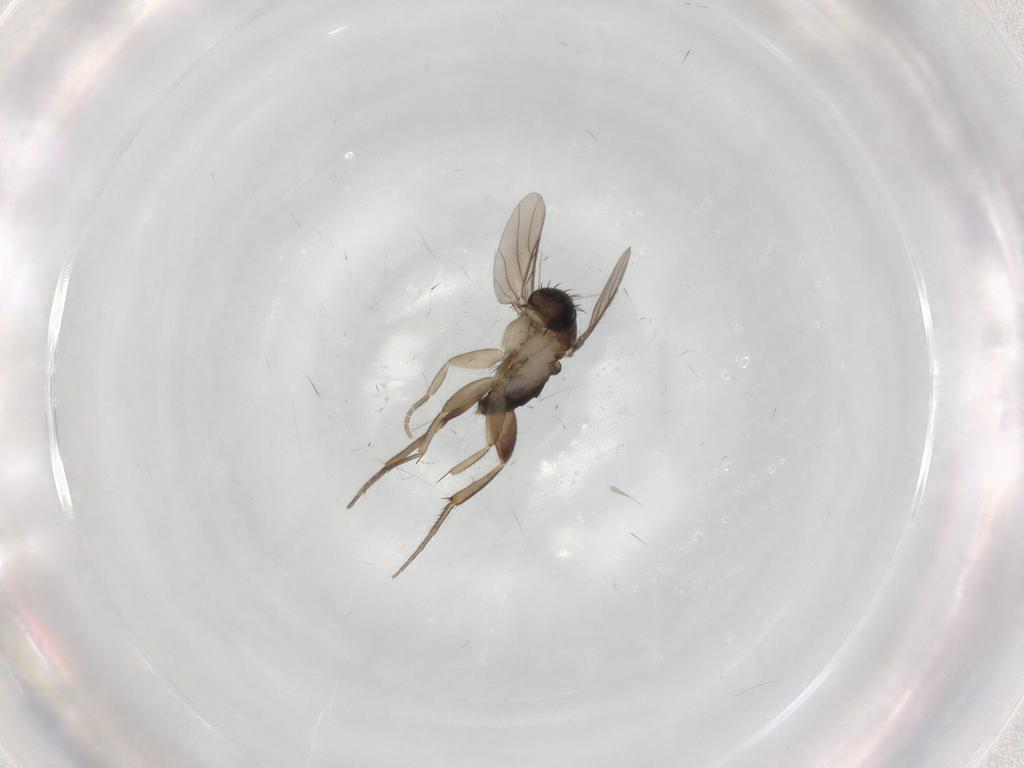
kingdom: Animalia
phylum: Arthropoda
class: Insecta
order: Diptera
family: Phoridae
